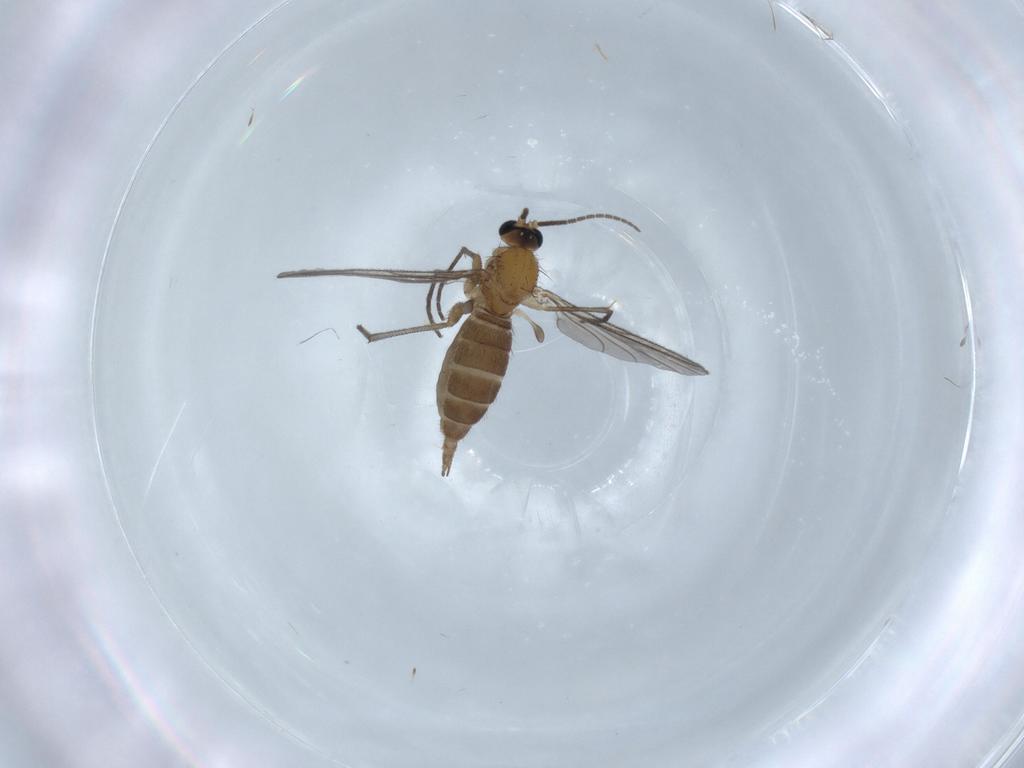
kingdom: Animalia
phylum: Arthropoda
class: Insecta
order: Diptera
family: Sciaridae
